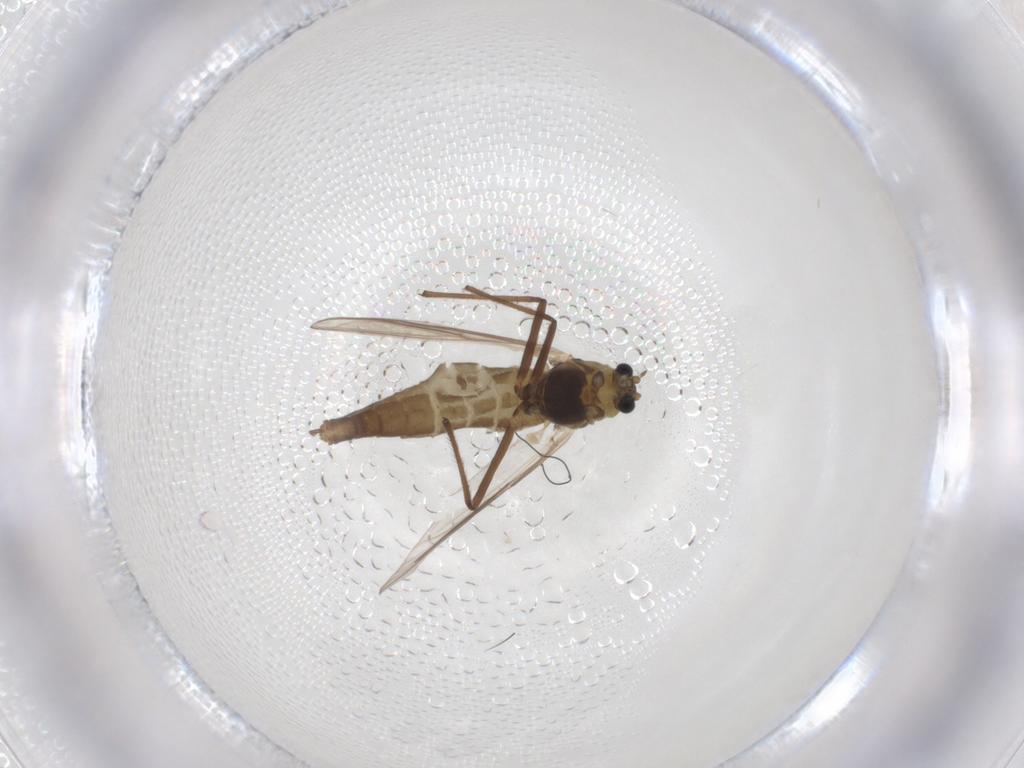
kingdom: Animalia
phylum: Arthropoda
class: Insecta
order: Diptera
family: Chironomidae
